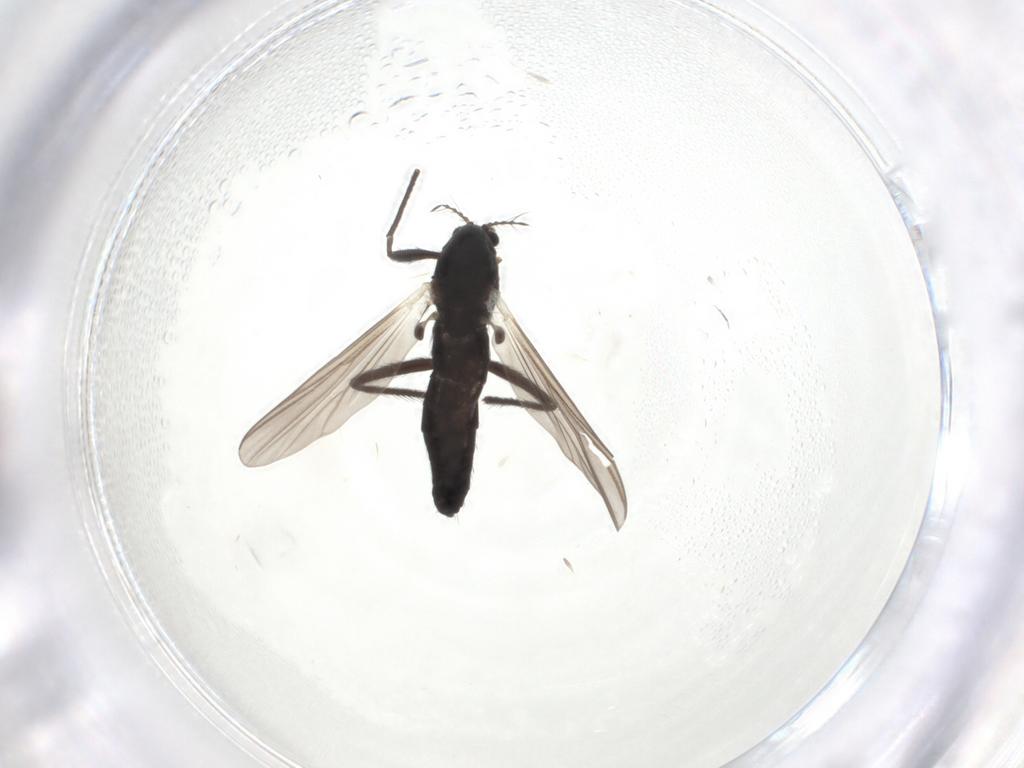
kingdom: Animalia
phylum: Arthropoda
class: Insecta
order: Diptera
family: Chironomidae
